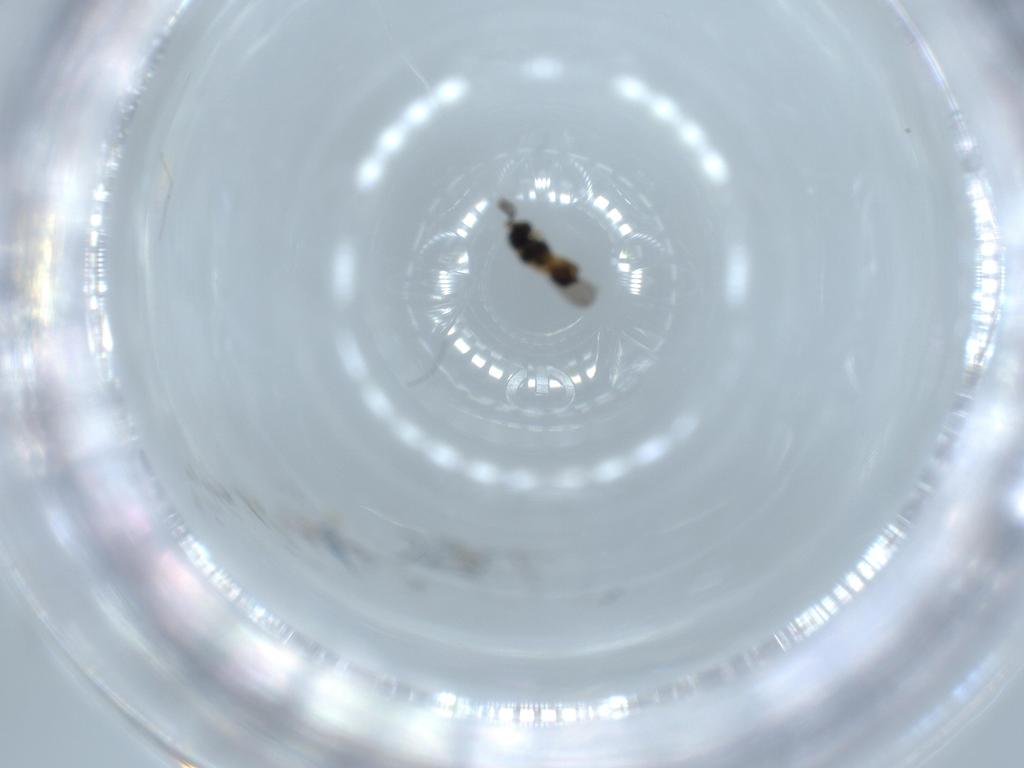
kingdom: Animalia
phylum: Arthropoda
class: Insecta
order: Hymenoptera
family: Scelionidae
